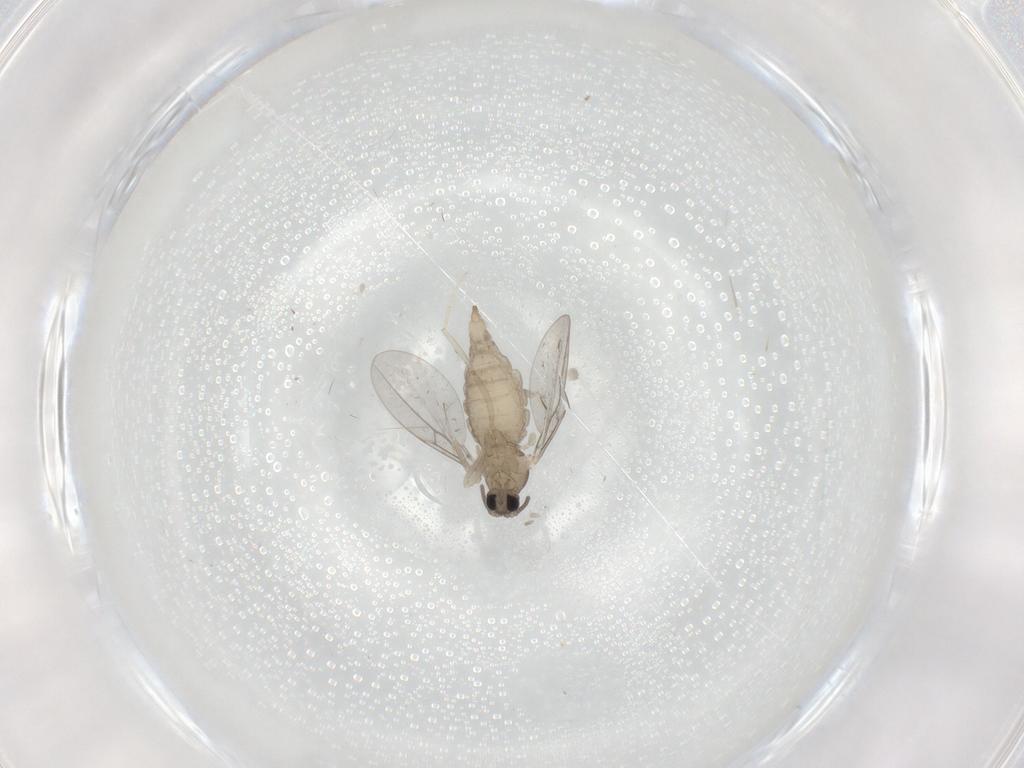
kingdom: Animalia
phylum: Arthropoda
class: Insecta
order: Diptera
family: Cecidomyiidae
